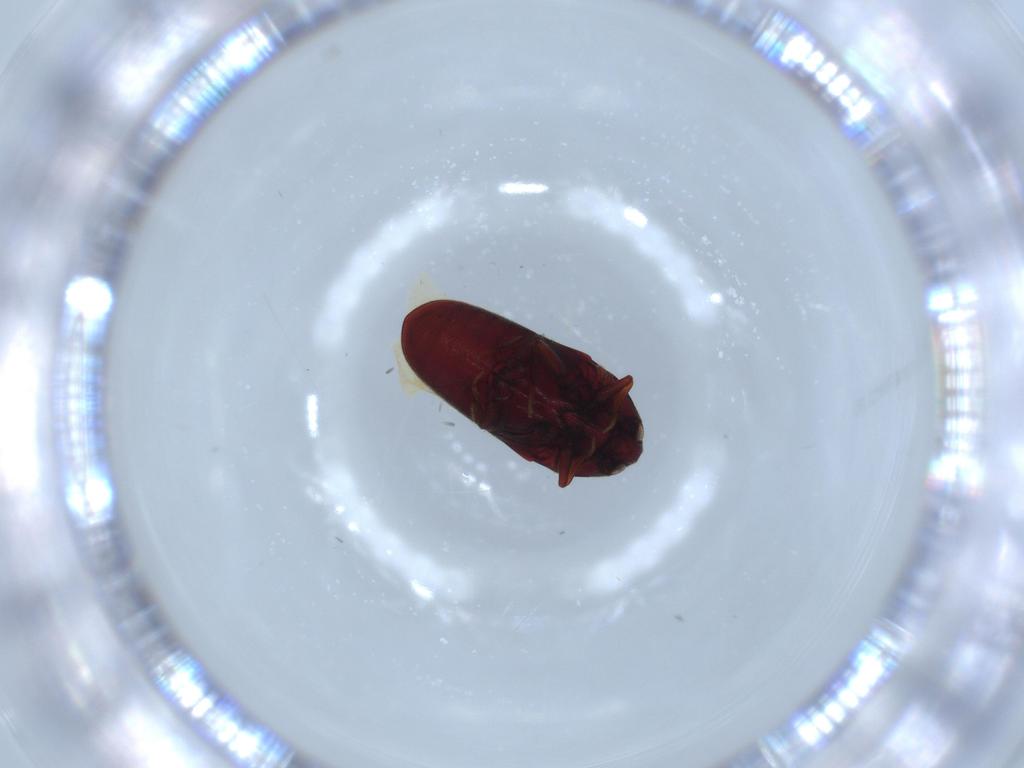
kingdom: Animalia
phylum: Arthropoda
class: Insecta
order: Coleoptera
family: Throscidae
